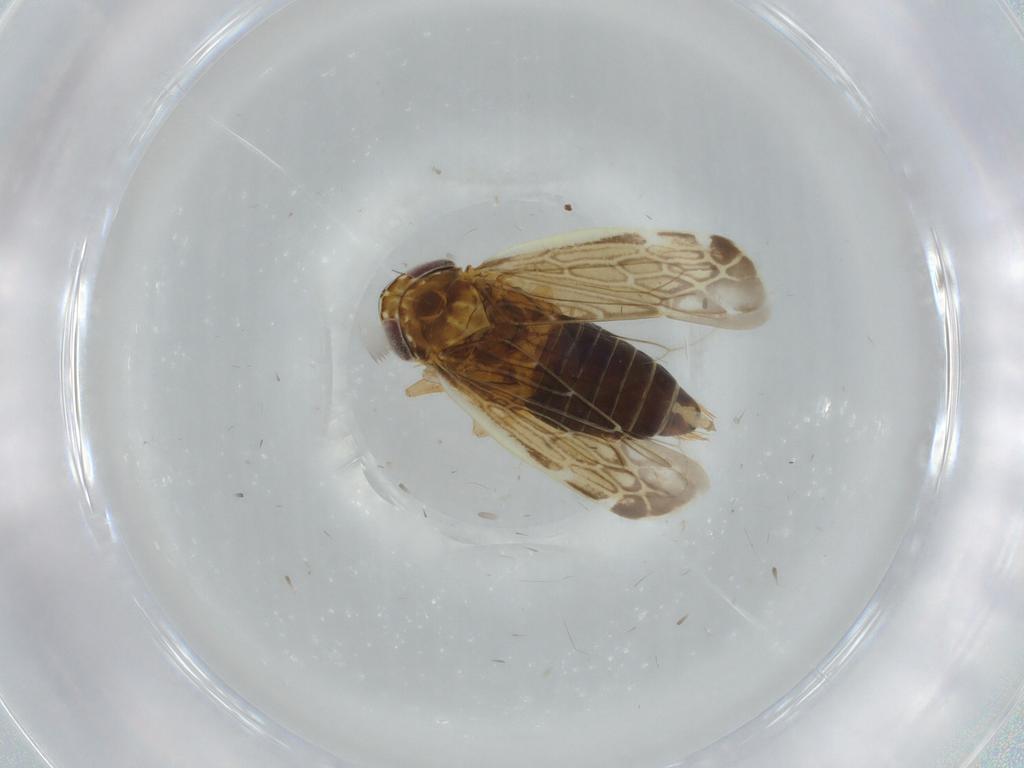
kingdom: Animalia
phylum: Arthropoda
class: Insecta
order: Hemiptera
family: Cicadellidae
